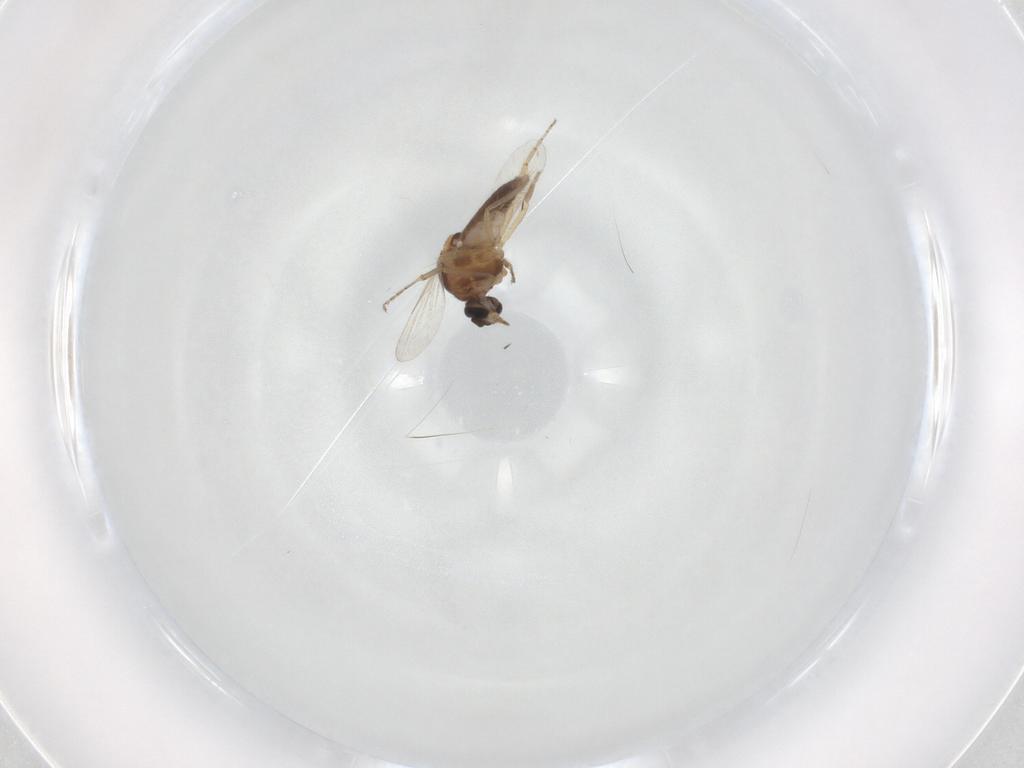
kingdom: Animalia
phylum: Arthropoda
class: Insecta
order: Diptera
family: Ceratopogonidae
